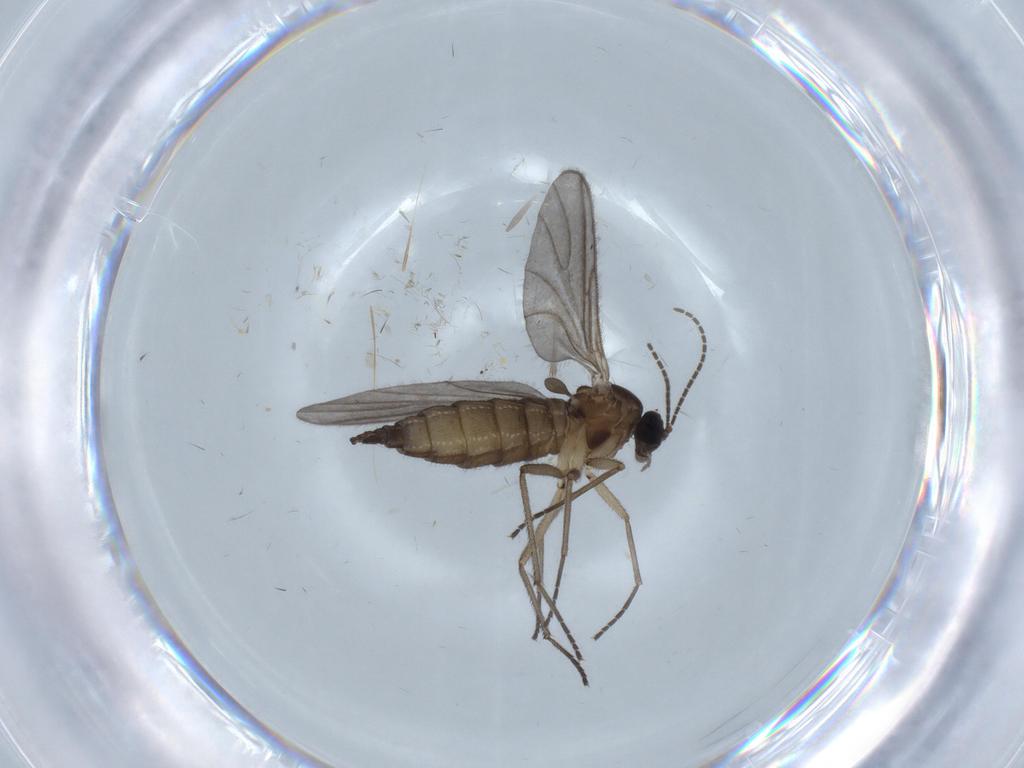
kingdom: Animalia
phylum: Arthropoda
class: Insecta
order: Diptera
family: Sciaridae
